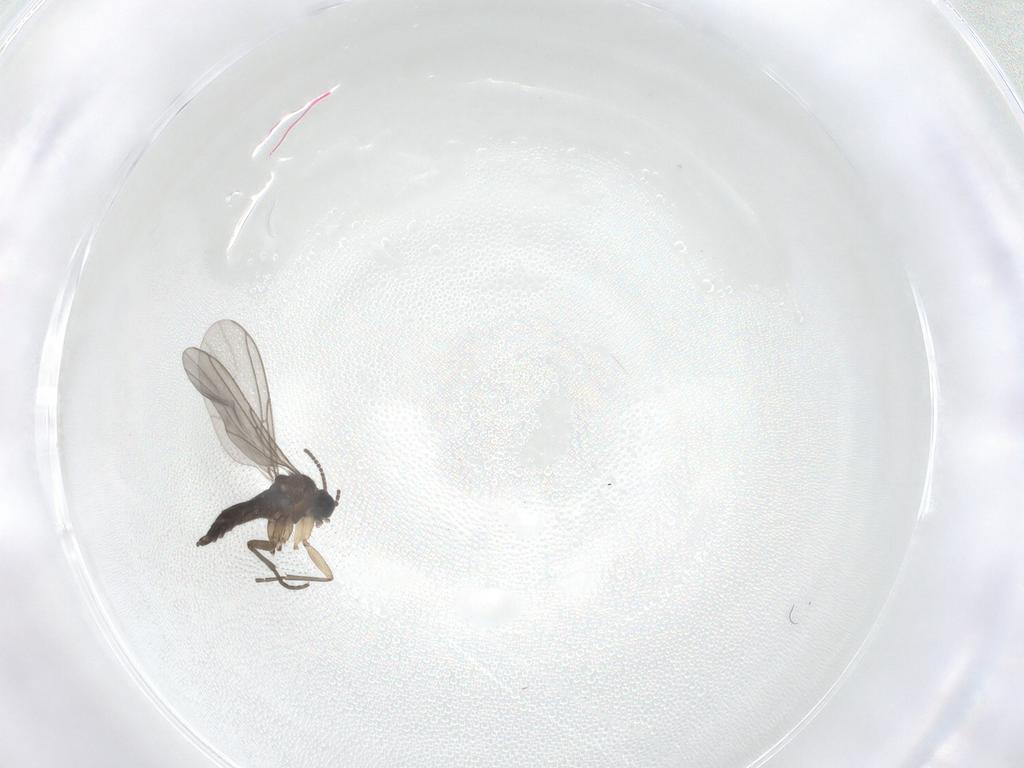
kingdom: Animalia
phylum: Arthropoda
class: Insecta
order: Diptera
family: Sciaridae
